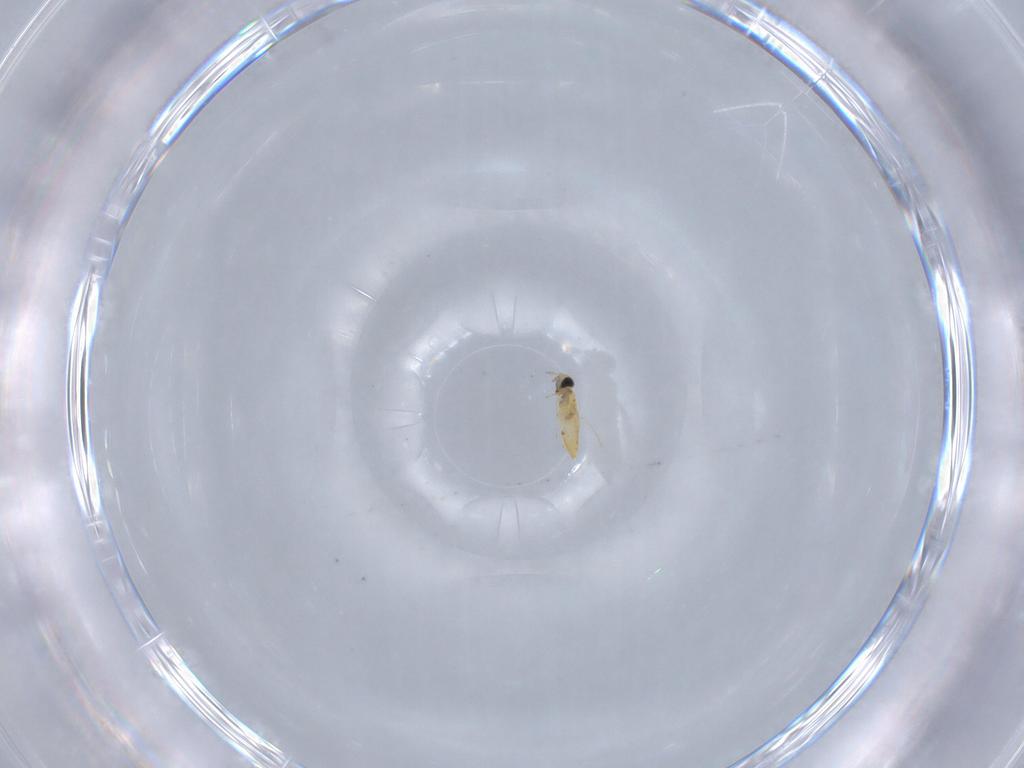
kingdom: Animalia
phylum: Arthropoda
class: Insecta
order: Hymenoptera
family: Trichogrammatidae
